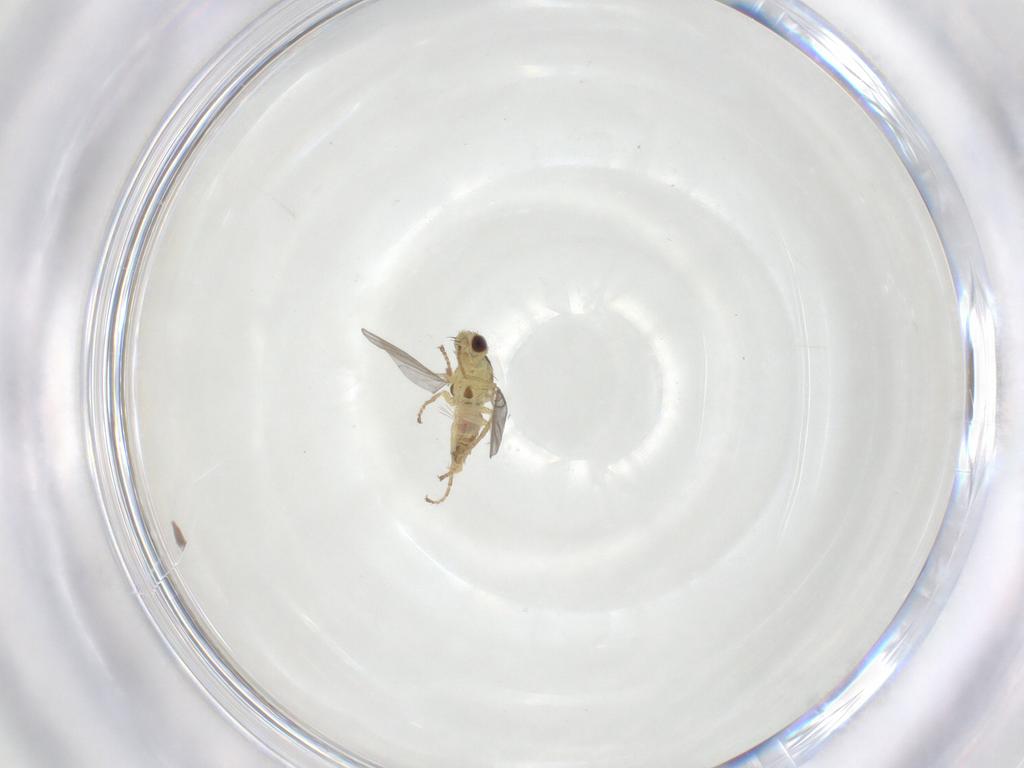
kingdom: Animalia
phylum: Arthropoda
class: Insecta
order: Diptera
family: Agromyzidae
